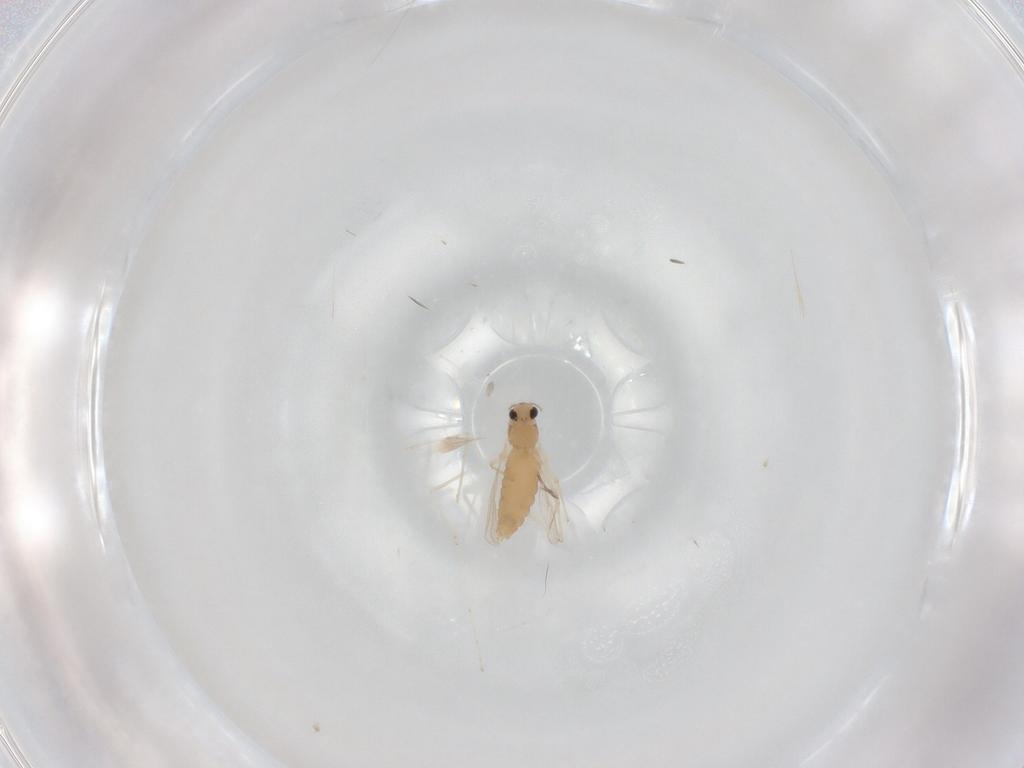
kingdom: Animalia
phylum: Arthropoda
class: Insecta
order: Diptera
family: Chironomidae
